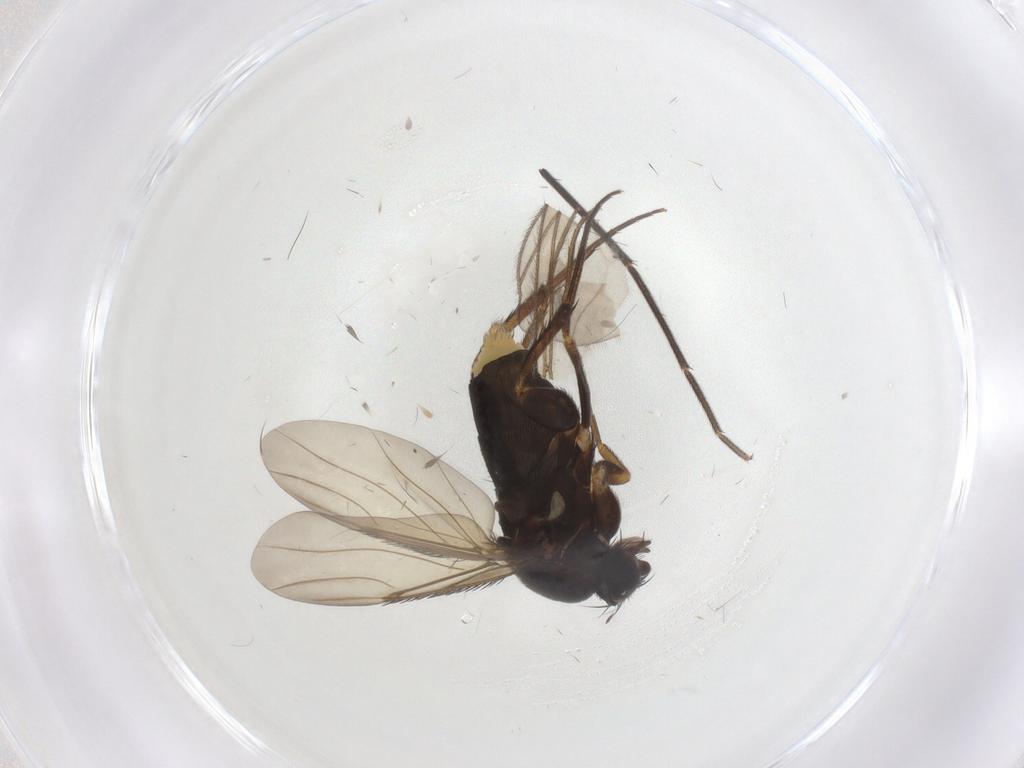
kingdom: Animalia
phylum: Arthropoda
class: Insecta
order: Diptera
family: Phoridae
